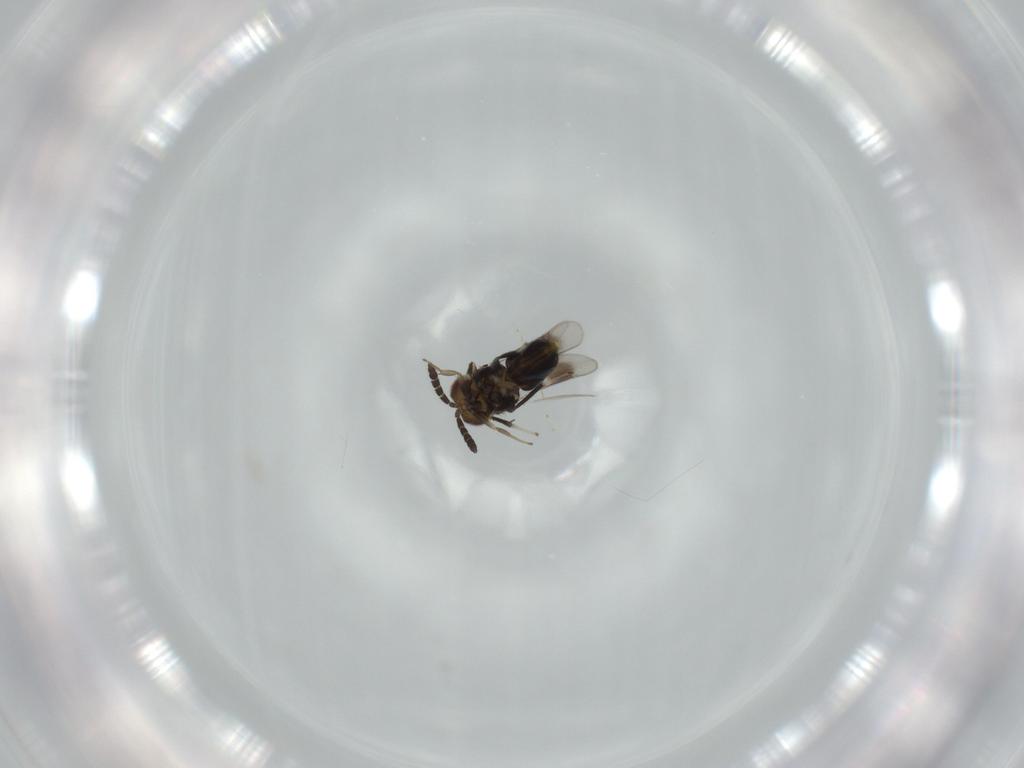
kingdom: Animalia
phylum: Arthropoda
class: Insecta
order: Hymenoptera
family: Aphelinidae
